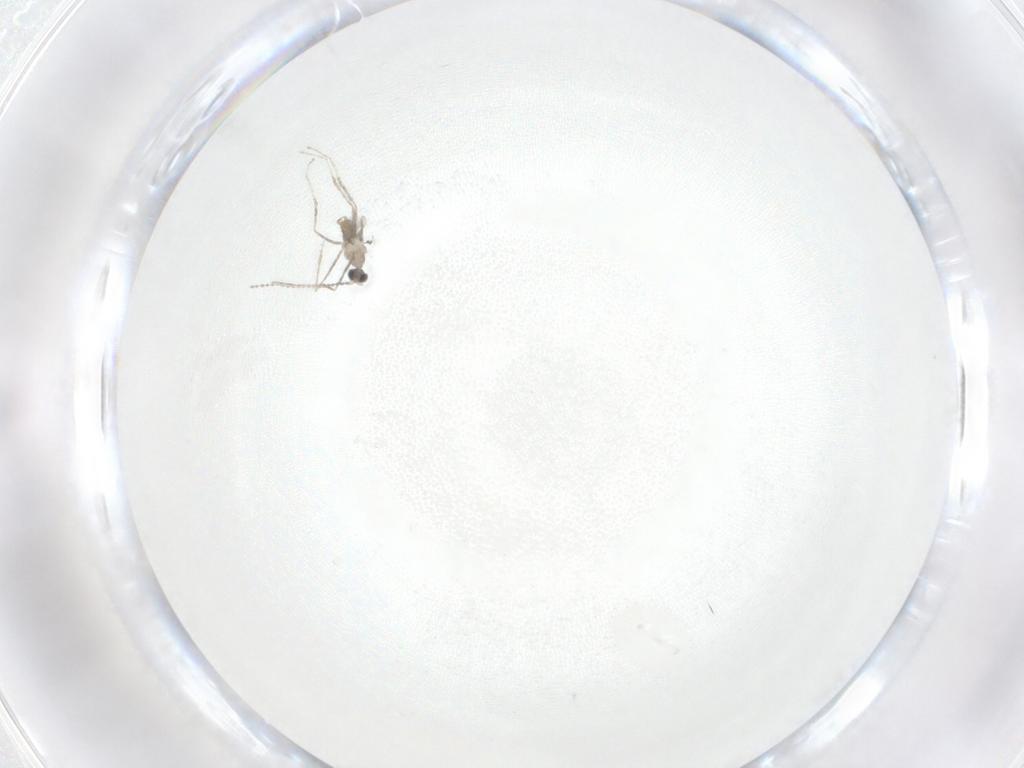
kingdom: Animalia
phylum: Arthropoda
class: Insecta
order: Diptera
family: Cecidomyiidae
